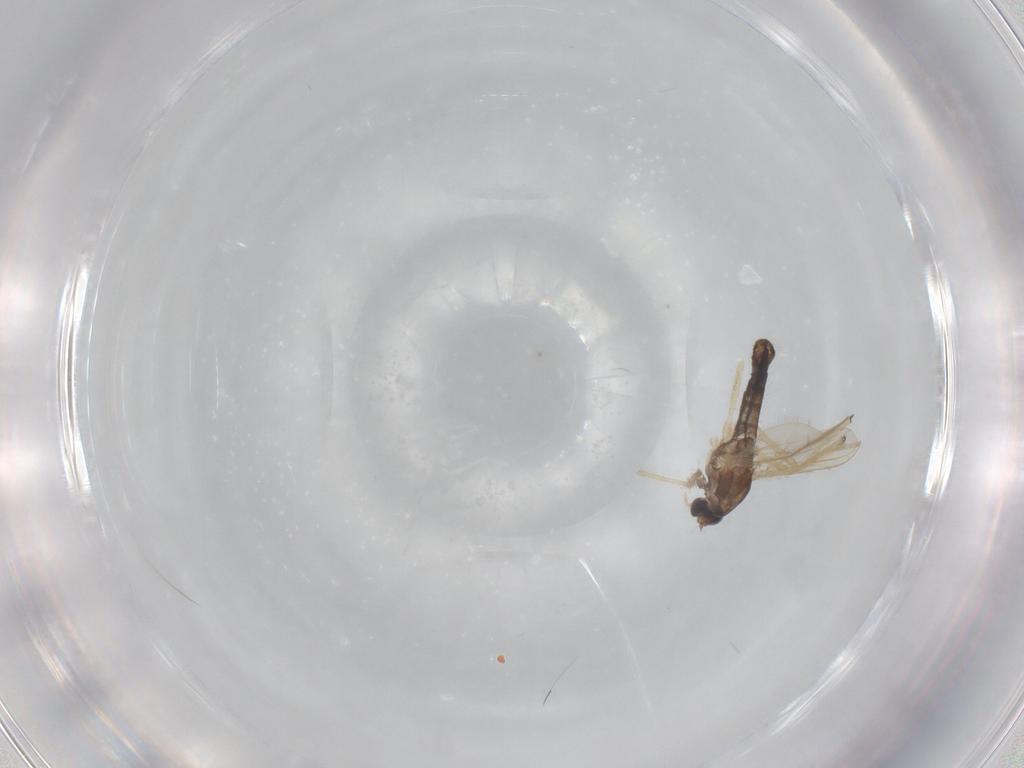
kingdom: Animalia
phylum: Arthropoda
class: Insecta
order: Diptera
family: Chironomidae
